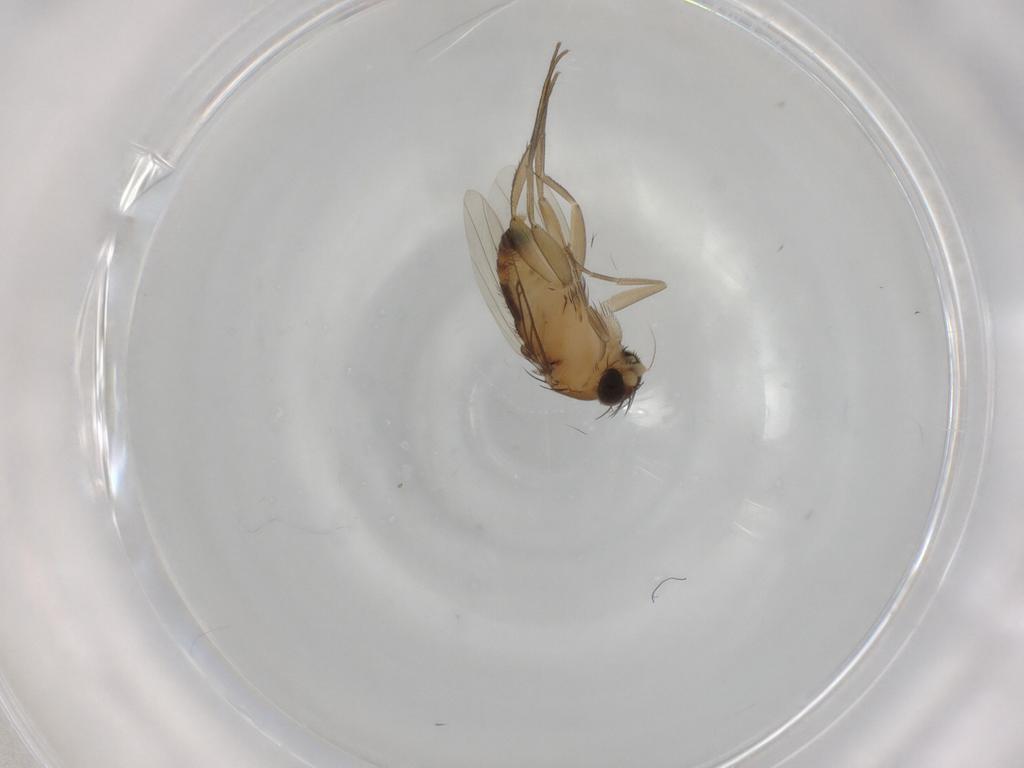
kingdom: Animalia
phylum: Arthropoda
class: Insecta
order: Diptera
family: Phoridae
